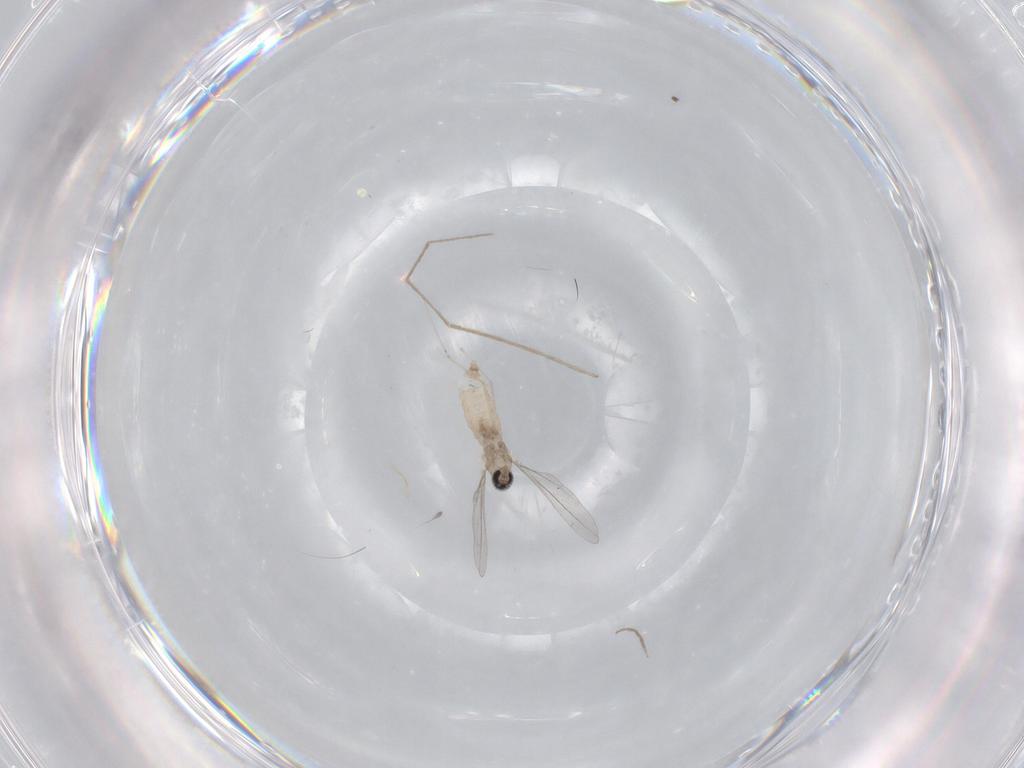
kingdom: Animalia
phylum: Arthropoda
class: Insecta
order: Diptera
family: Cecidomyiidae
